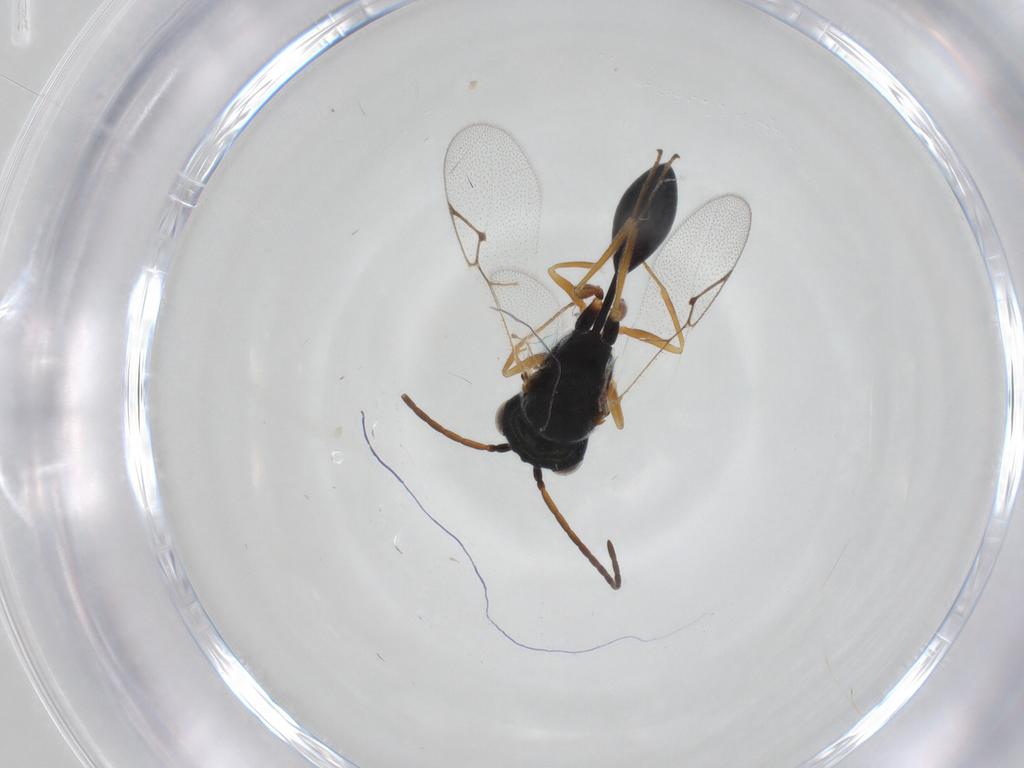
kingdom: Animalia
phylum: Arthropoda
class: Insecta
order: Hymenoptera
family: Figitidae
